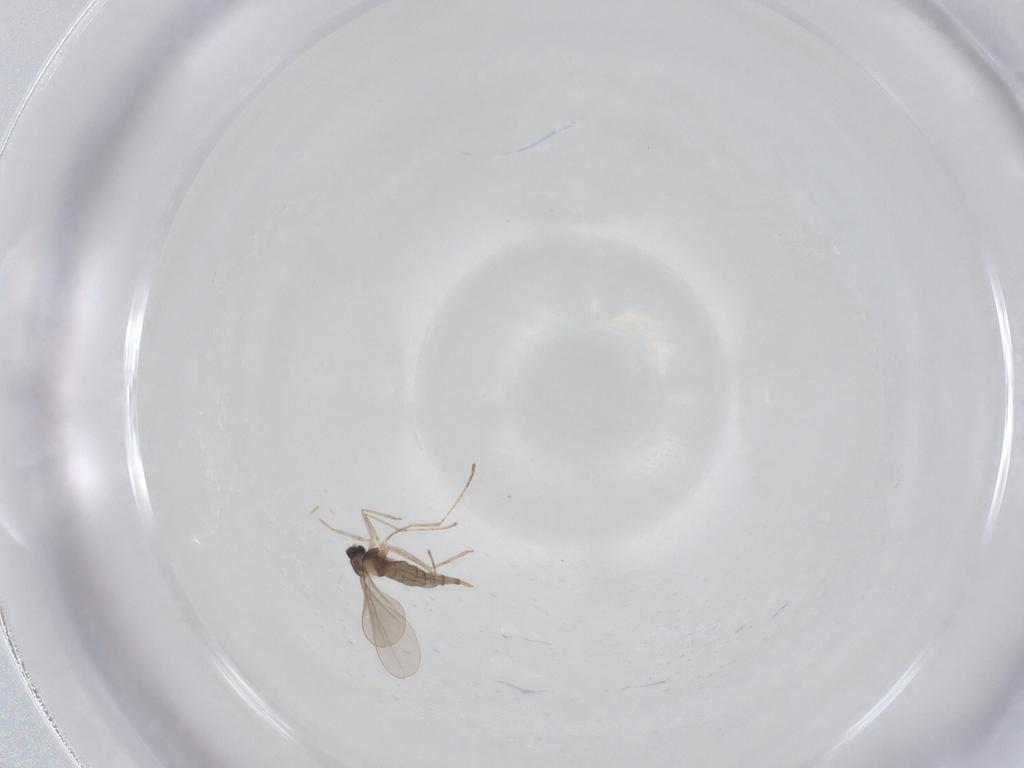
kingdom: Animalia
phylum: Arthropoda
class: Insecta
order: Diptera
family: Cecidomyiidae
